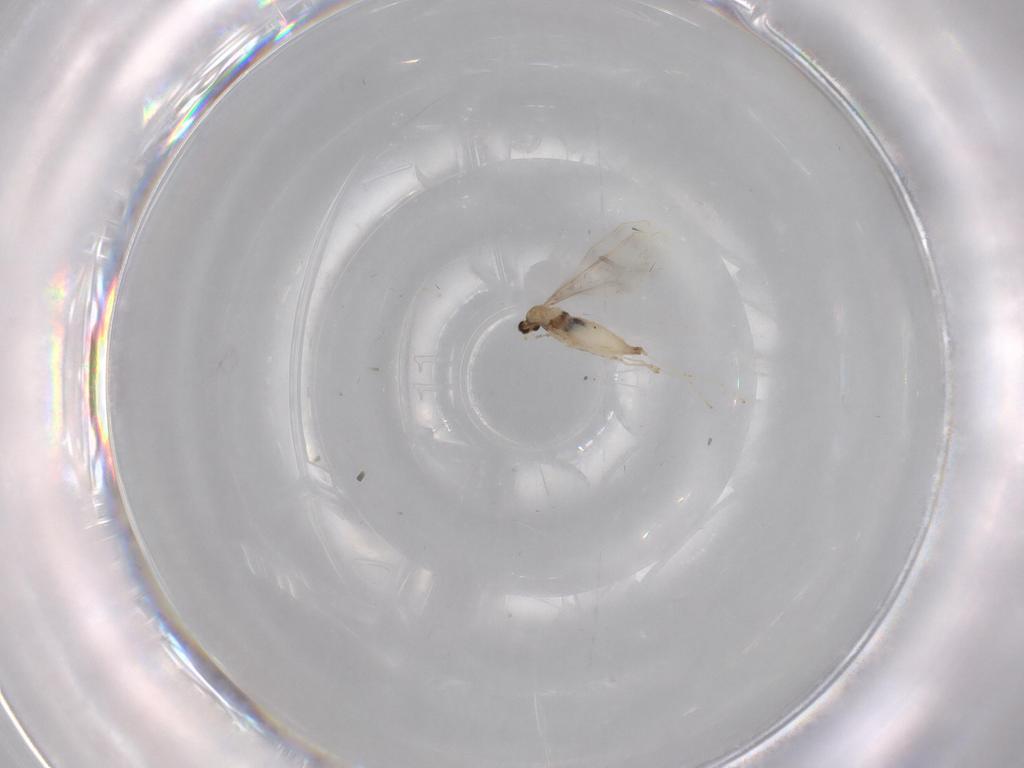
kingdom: Animalia
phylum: Arthropoda
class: Insecta
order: Diptera
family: Cecidomyiidae
